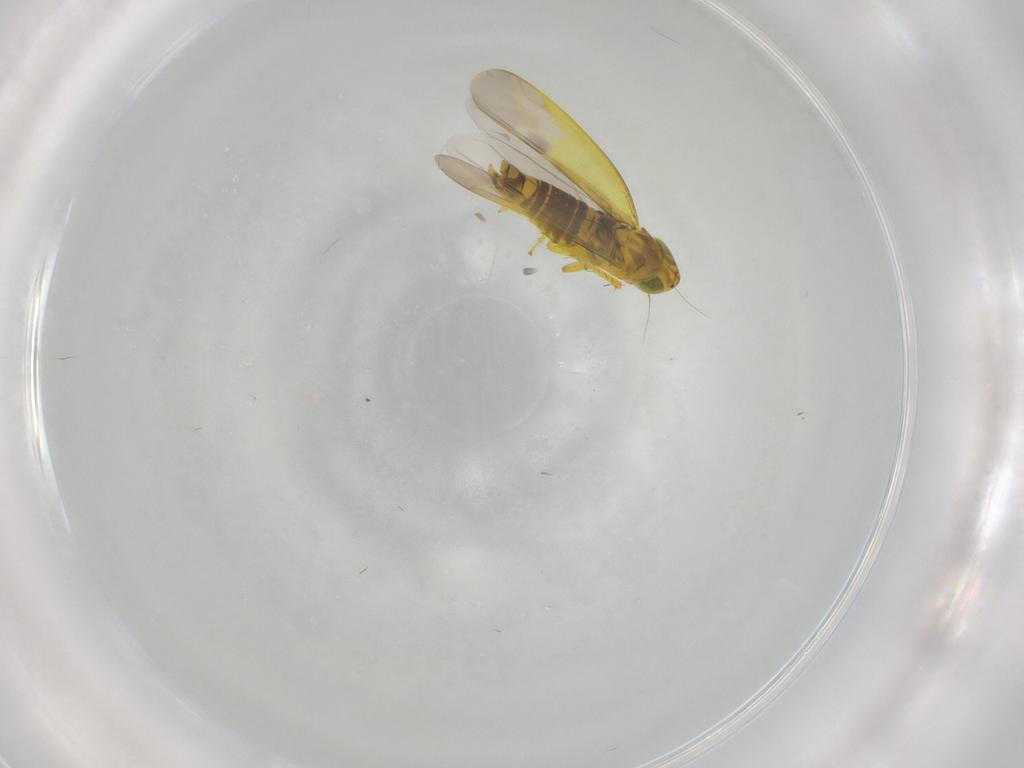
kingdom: Animalia
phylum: Arthropoda
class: Insecta
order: Hemiptera
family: Cicadellidae
